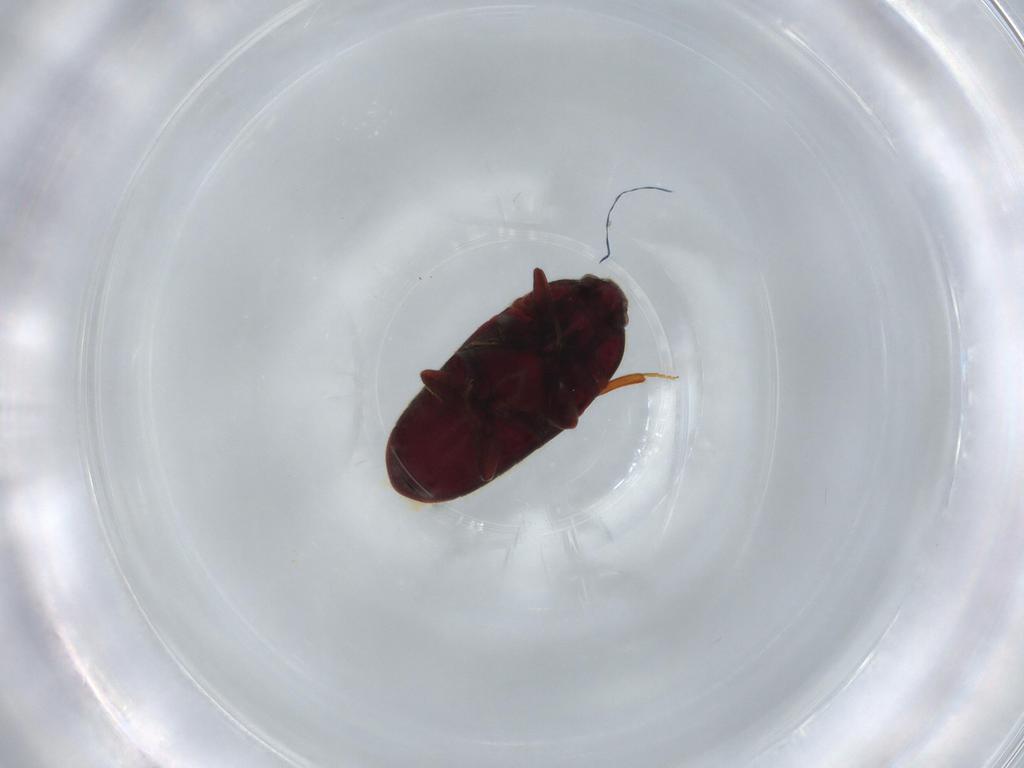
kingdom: Animalia
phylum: Arthropoda
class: Insecta
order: Coleoptera
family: Throscidae
